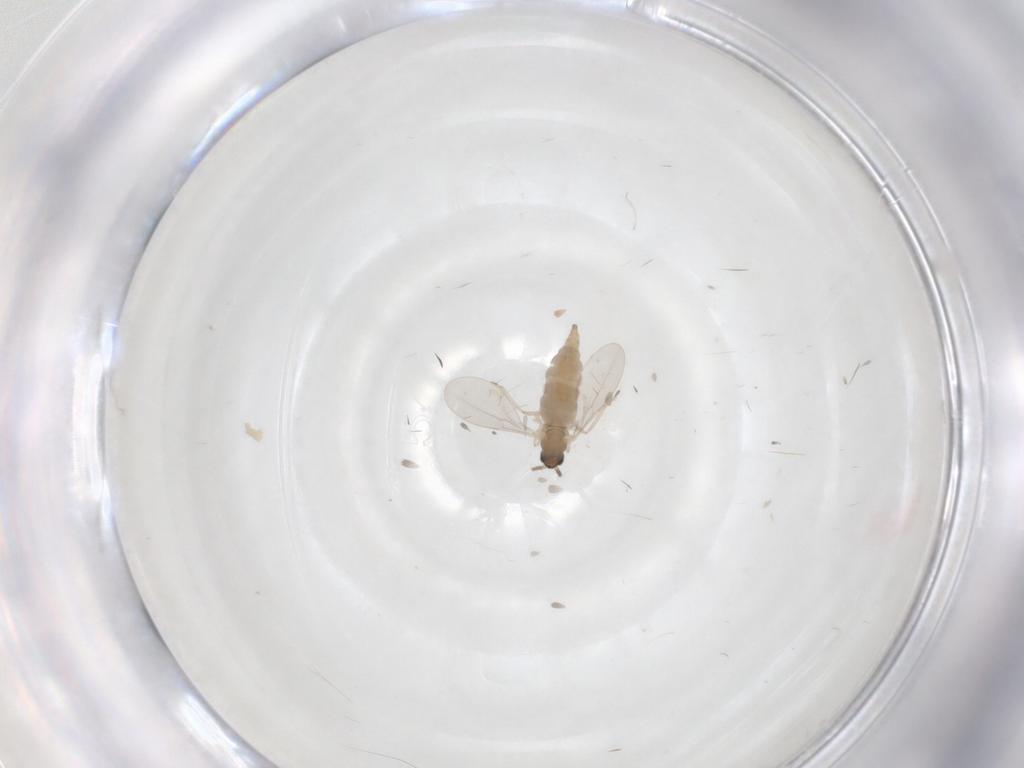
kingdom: Animalia
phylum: Arthropoda
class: Insecta
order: Diptera
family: Cecidomyiidae
